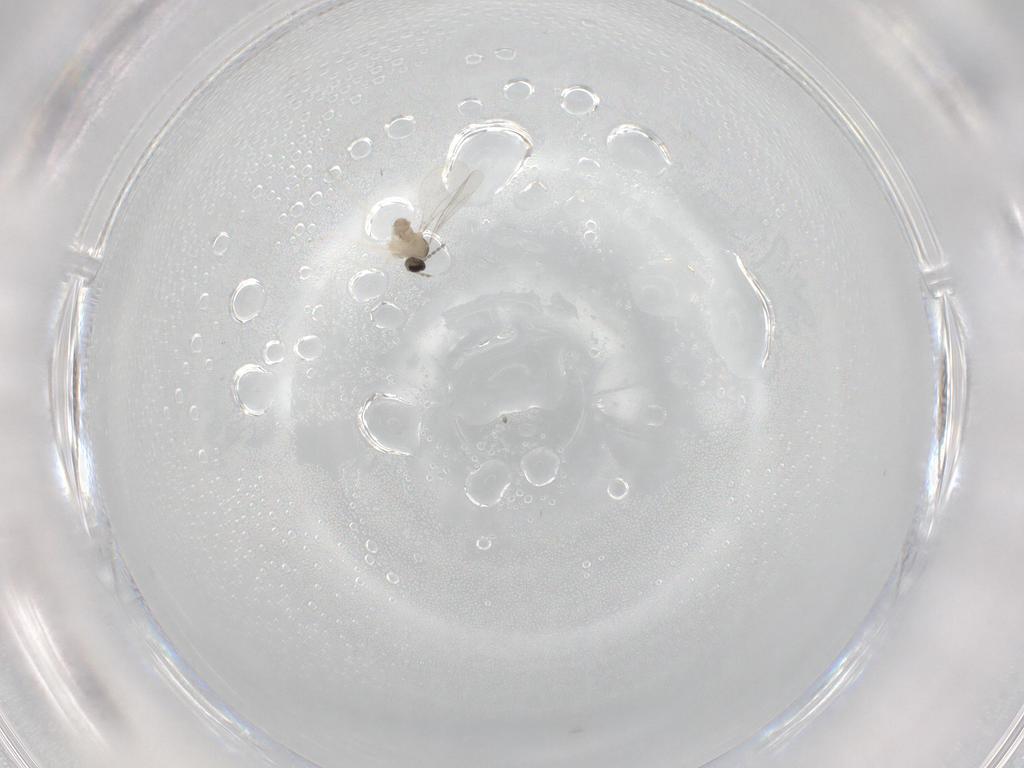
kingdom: Animalia
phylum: Arthropoda
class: Insecta
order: Diptera
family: Cecidomyiidae
